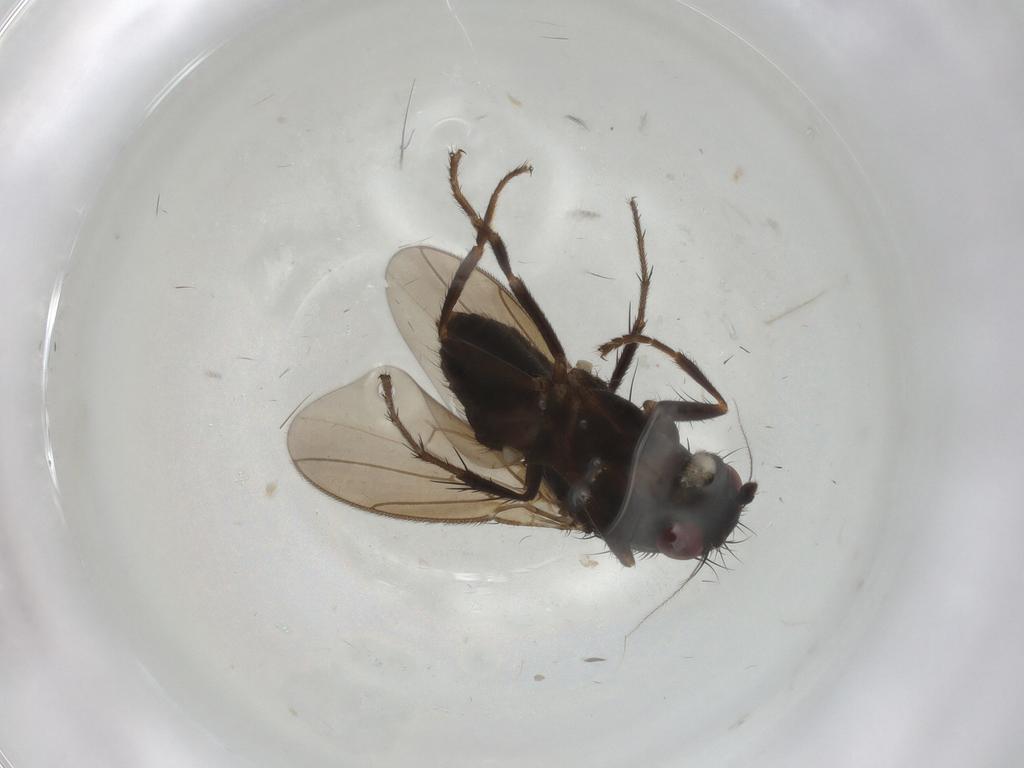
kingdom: Animalia
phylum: Arthropoda
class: Insecta
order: Diptera
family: Sphaeroceridae
